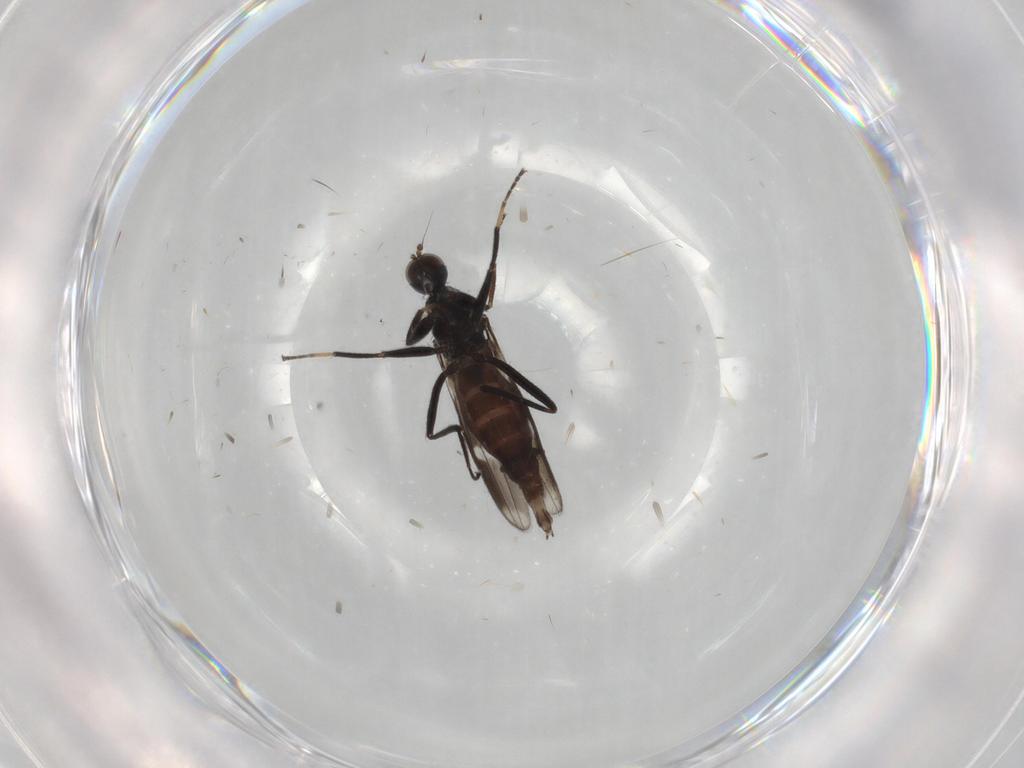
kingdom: Animalia
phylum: Arthropoda
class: Insecta
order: Diptera
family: Hybotidae
